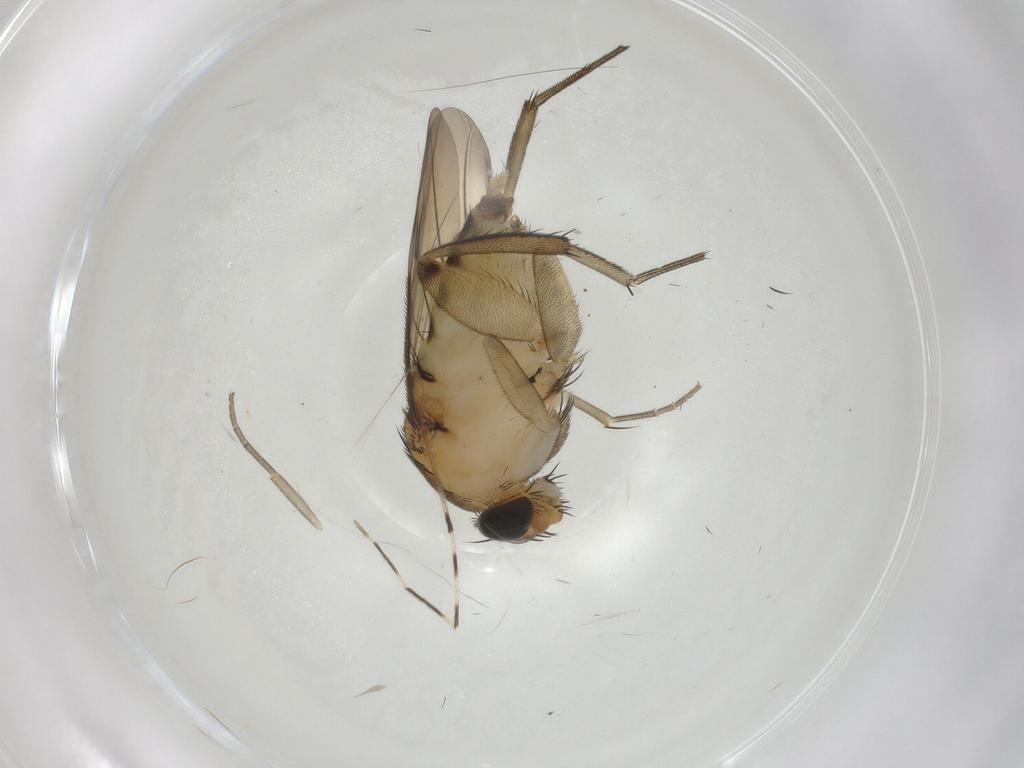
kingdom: Animalia
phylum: Arthropoda
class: Insecta
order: Diptera
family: Phoridae
